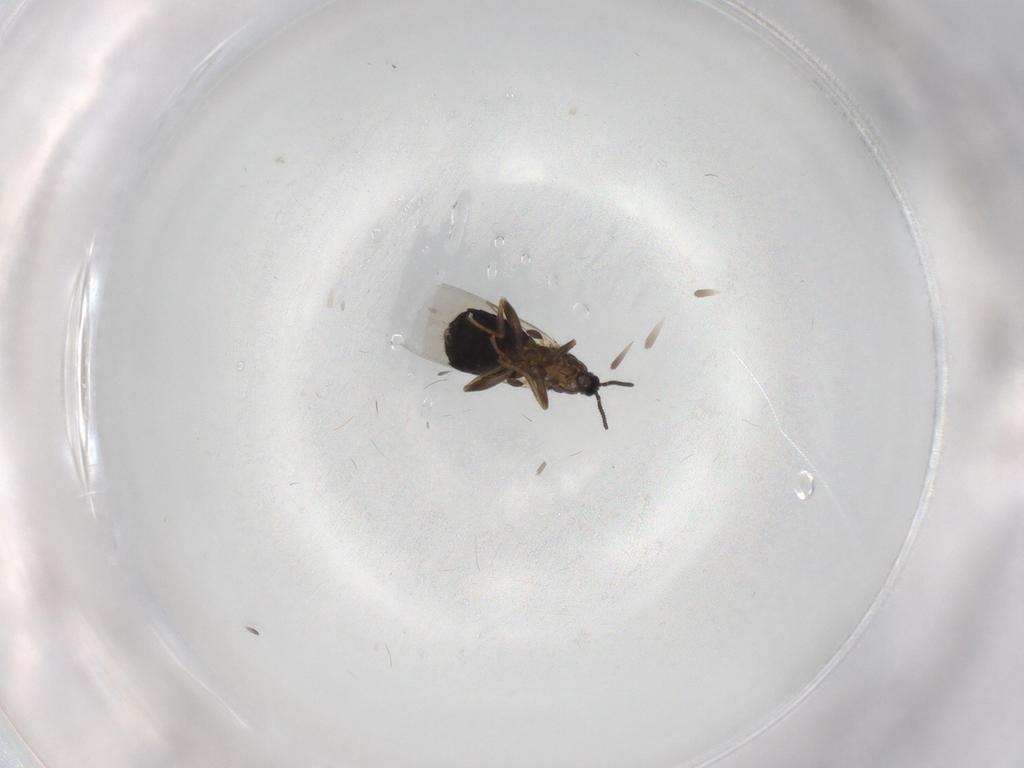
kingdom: Animalia
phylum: Arthropoda
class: Insecta
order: Diptera
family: Scatopsidae
